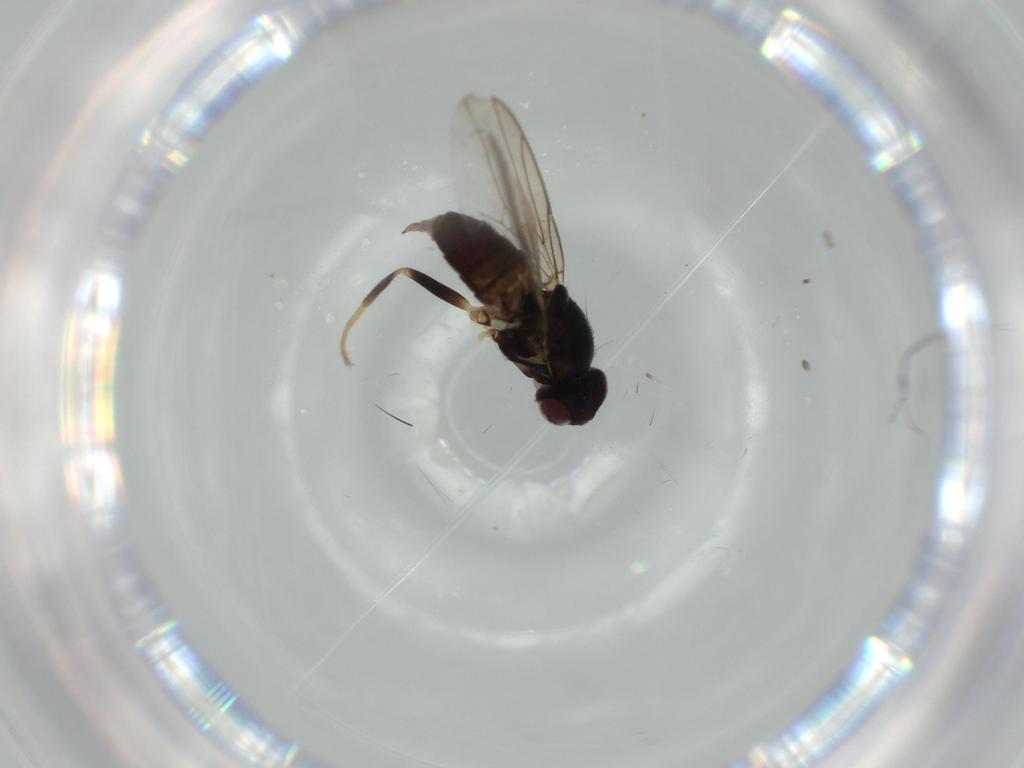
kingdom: Animalia
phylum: Arthropoda
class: Insecta
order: Diptera
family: Chloropidae
